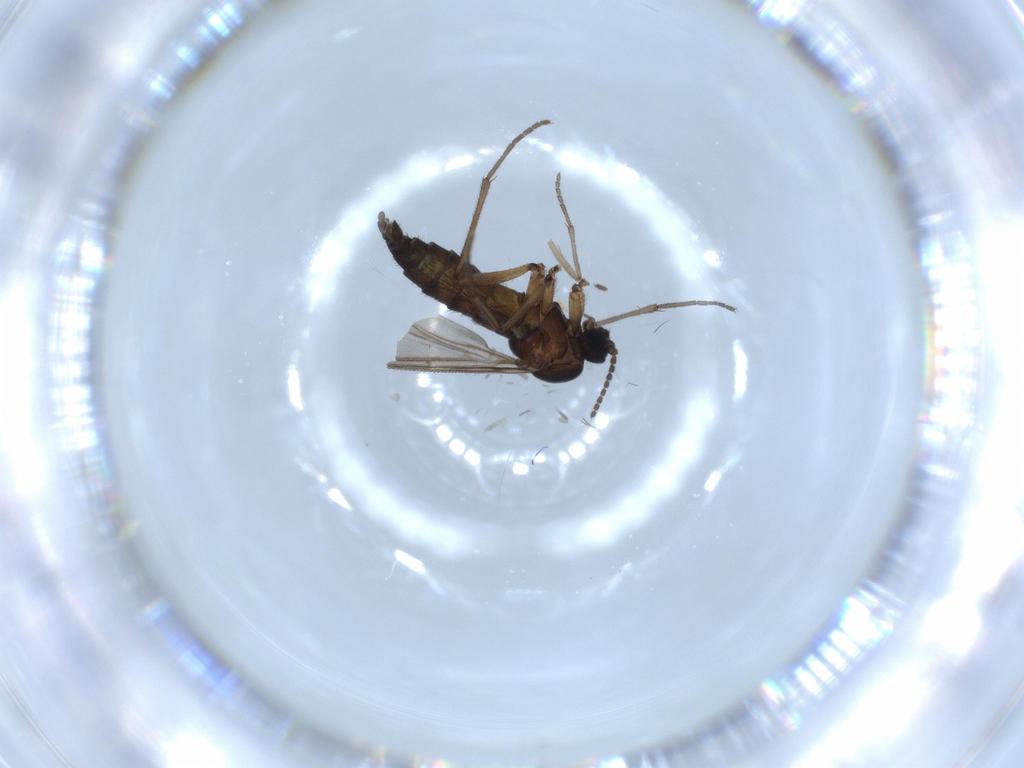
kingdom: Animalia
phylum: Arthropoda
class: Insecta
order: Diptera
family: Sciaridae
